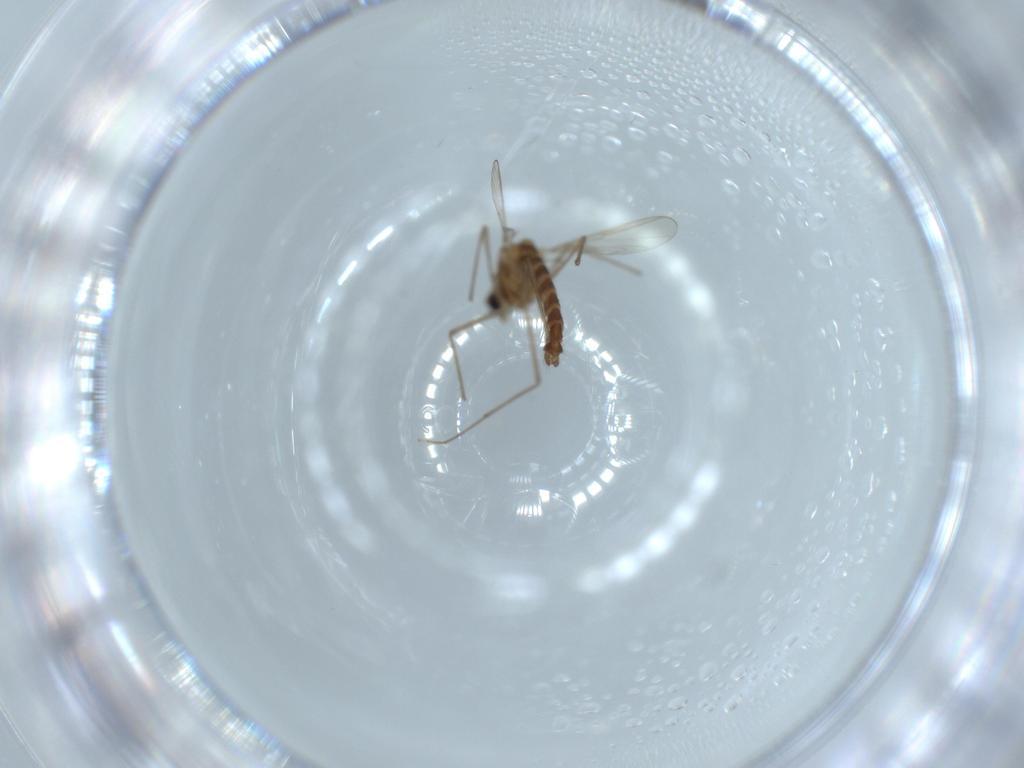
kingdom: Animalia
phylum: Arthropoda
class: Insecta
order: Diptera
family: Chironomidae
